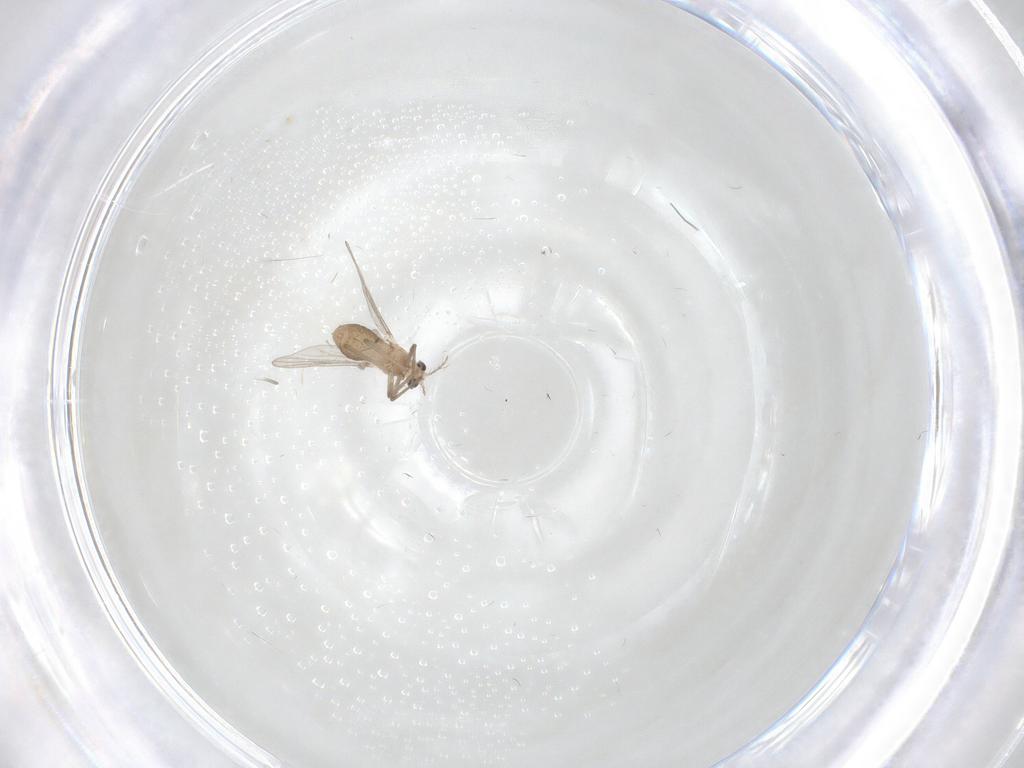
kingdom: Animalia
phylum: Arthropoda
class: Insecta
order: Diptera
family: Chironomidae
